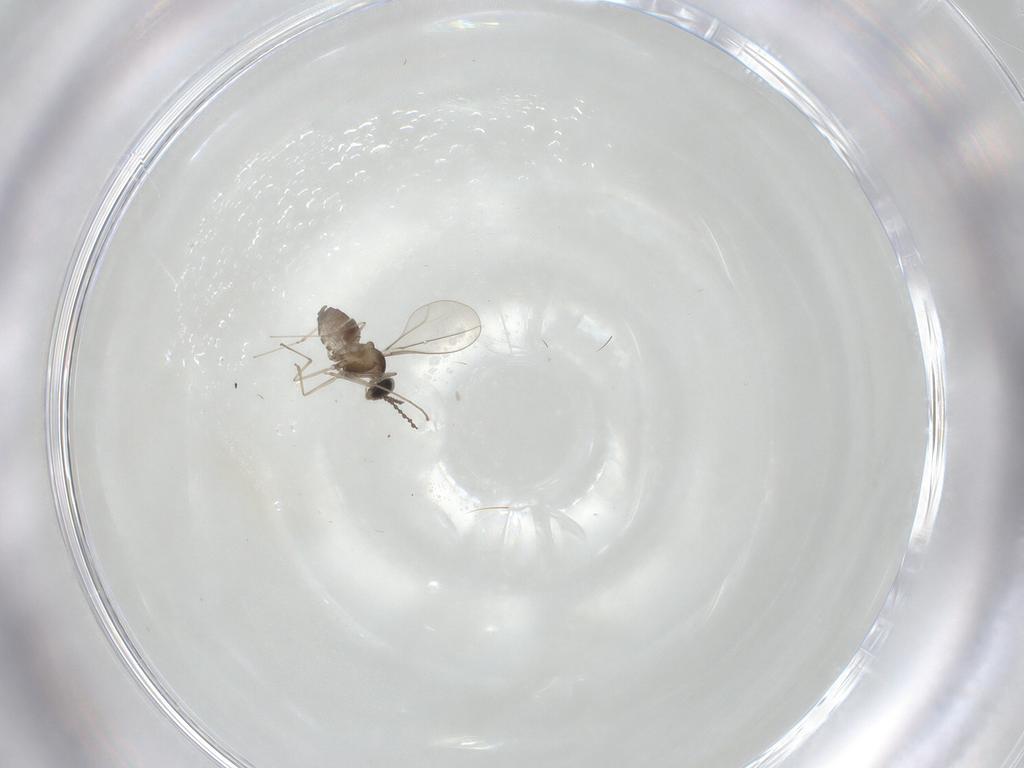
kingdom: Animalia
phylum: Arthropoda
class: Insecta
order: Diptera
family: Cecidomyiidae
